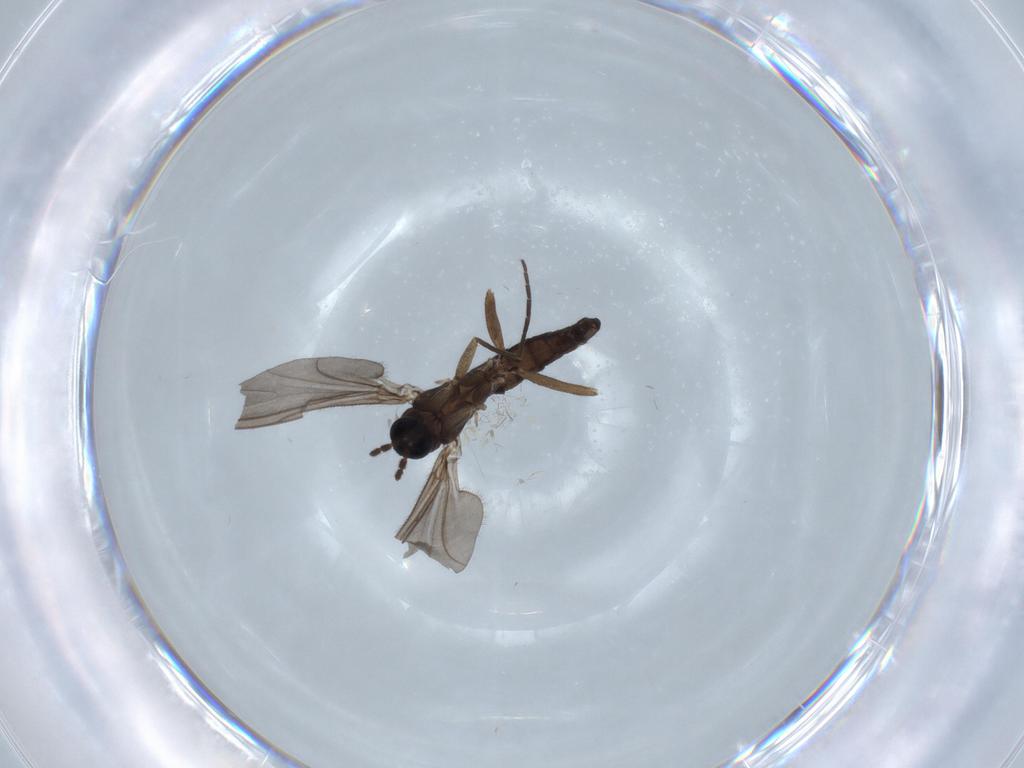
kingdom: Animalia
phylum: Arthropoda
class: Insecta
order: Diptera
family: Sciaridae
